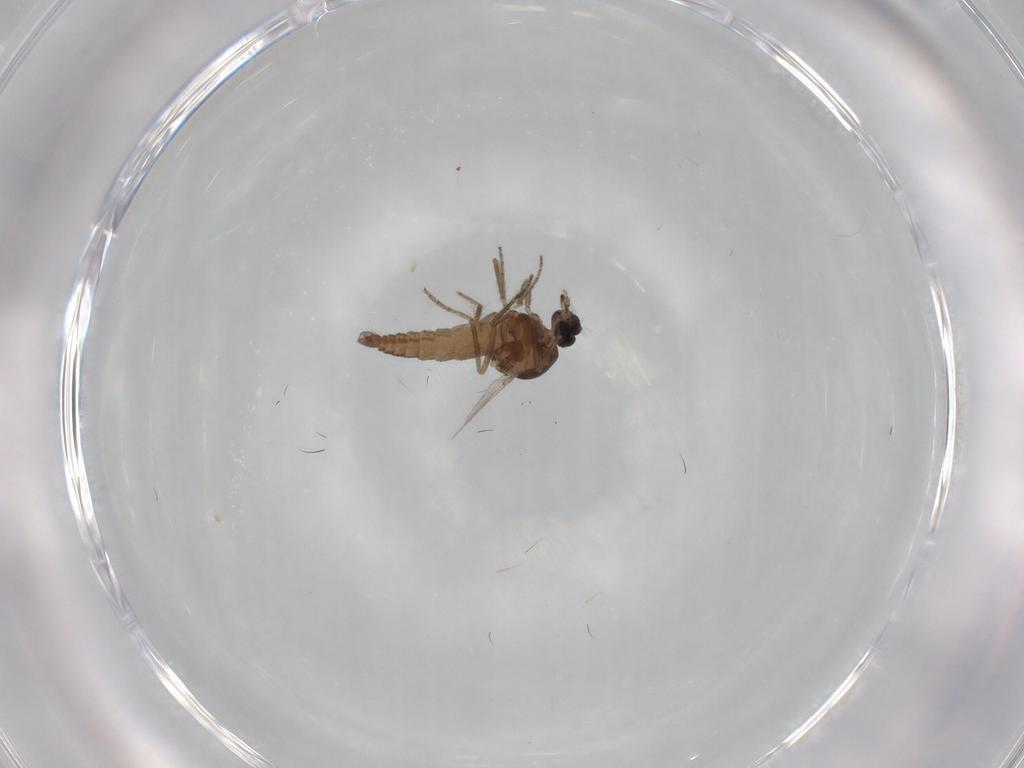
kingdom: Animalia
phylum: Arthropoda
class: Insecta
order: Diptera
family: Ceratopogonidae
